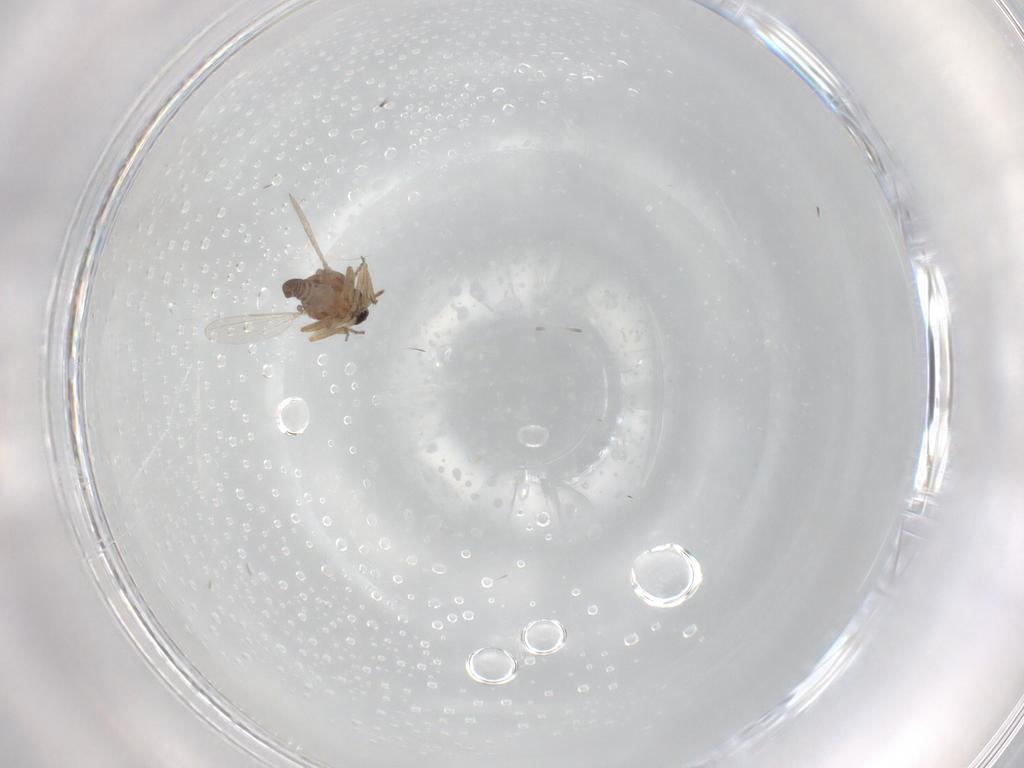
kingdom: Animalia
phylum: Arthropoda
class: Insecta
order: Diptera
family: Ceratopogonidae
